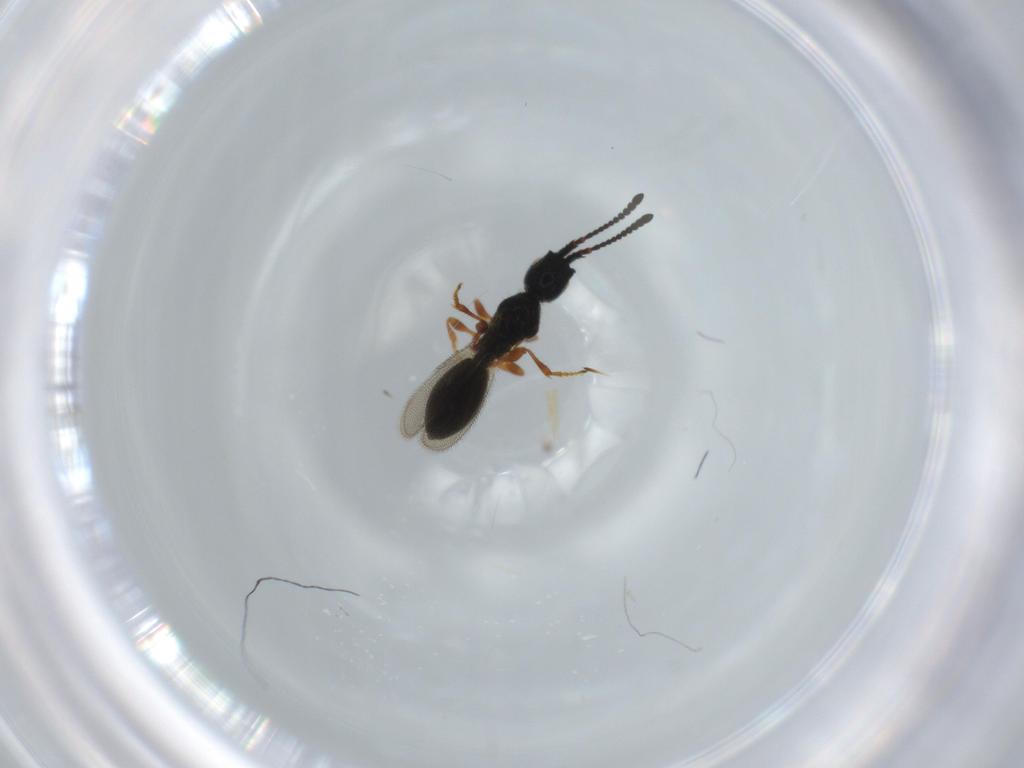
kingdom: Animalia
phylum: Arthropoda
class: Insecta
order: Hymenoptera
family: Diapriidae
